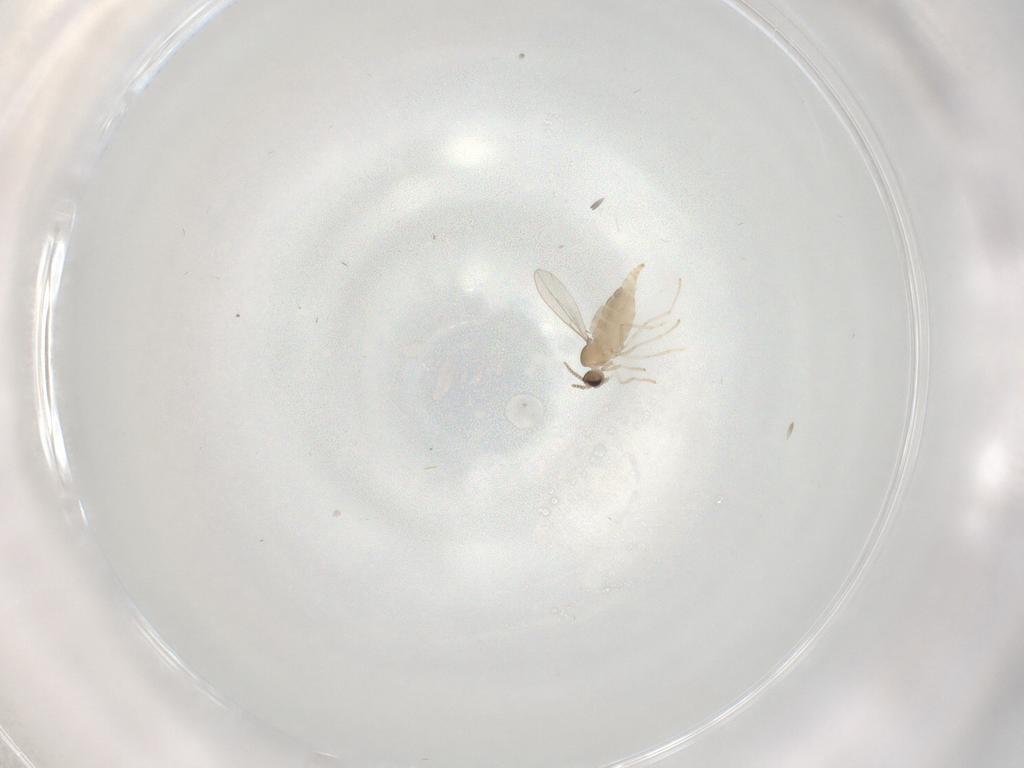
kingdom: Animalia
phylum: Arthropoda
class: Insecta
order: Diptera
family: Cecidomyiidae
